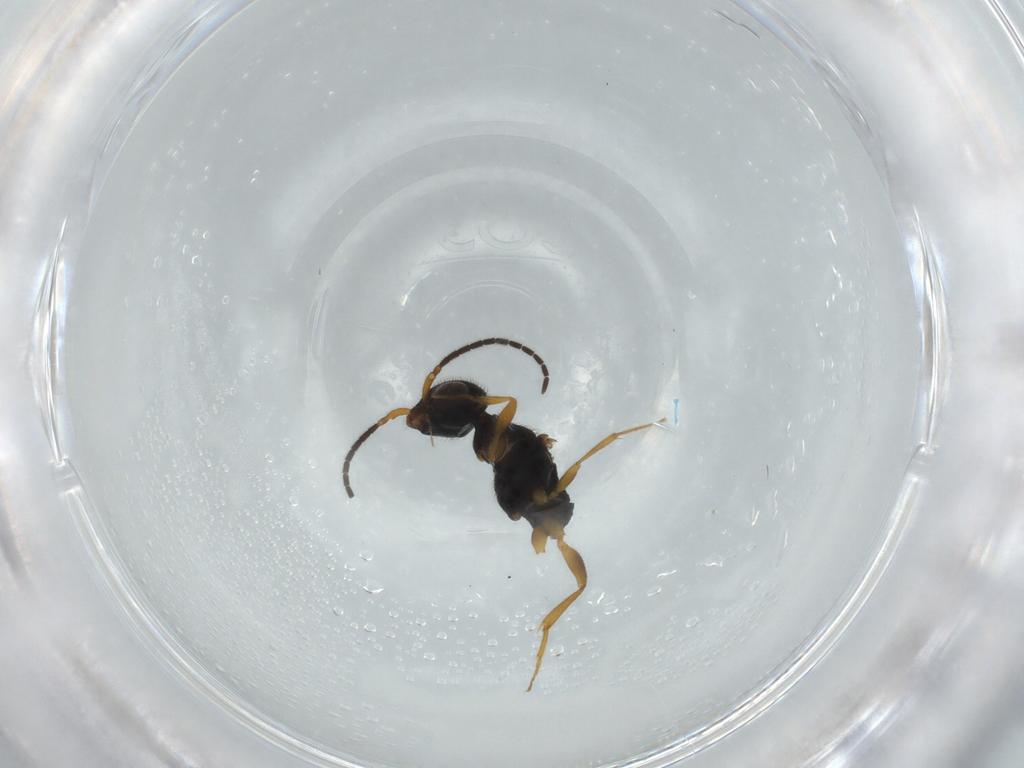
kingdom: Animalia
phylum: Arthropoda
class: Insecta
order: Hymenoptera
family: Bethylidae
